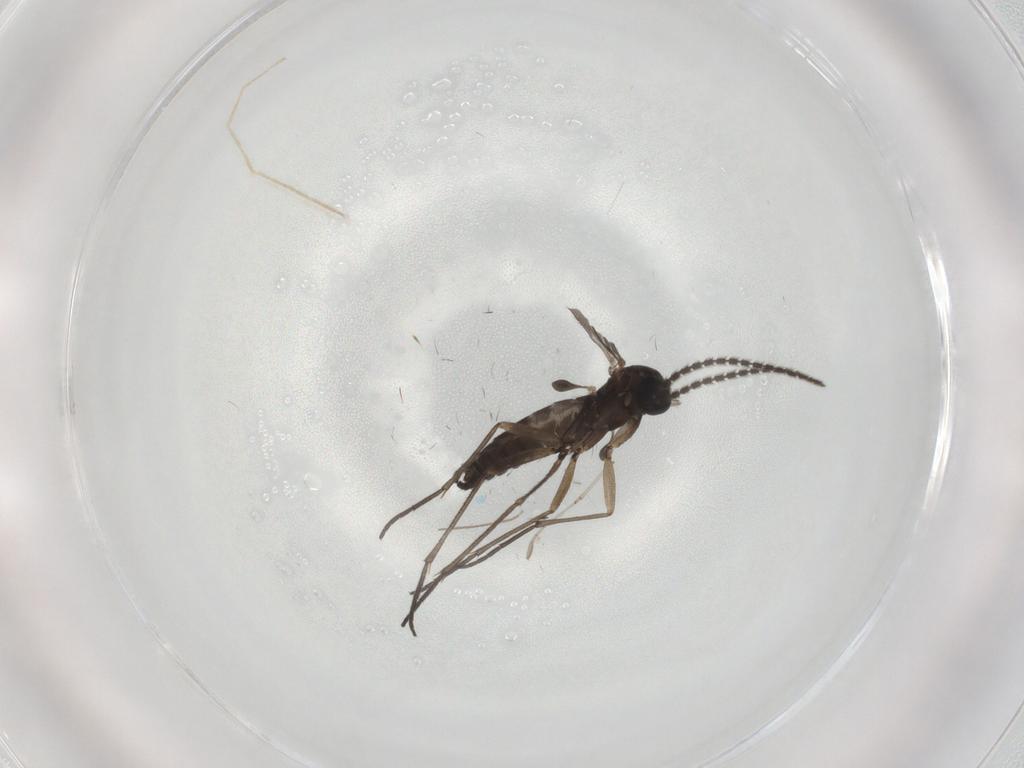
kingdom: Animalia
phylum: Arthropoda
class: Insecta
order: Diptera
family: Sciaridae
